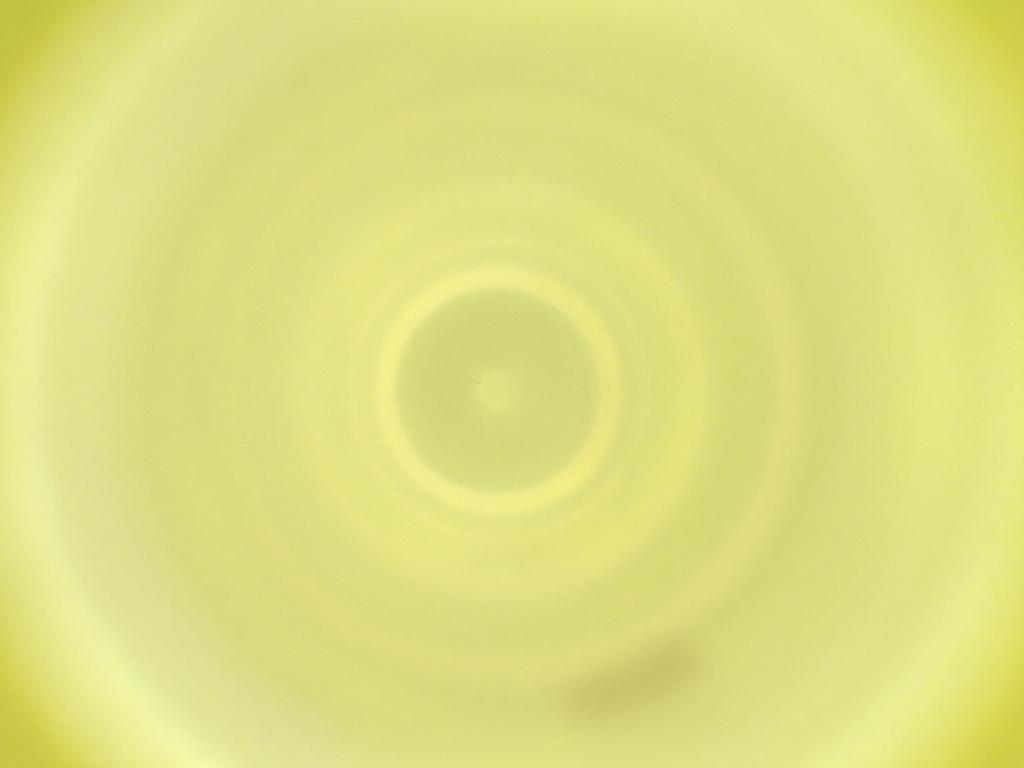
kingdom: Animalia
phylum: Arthropoda
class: Insecta
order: Diptera
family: Cecidomyiidae
